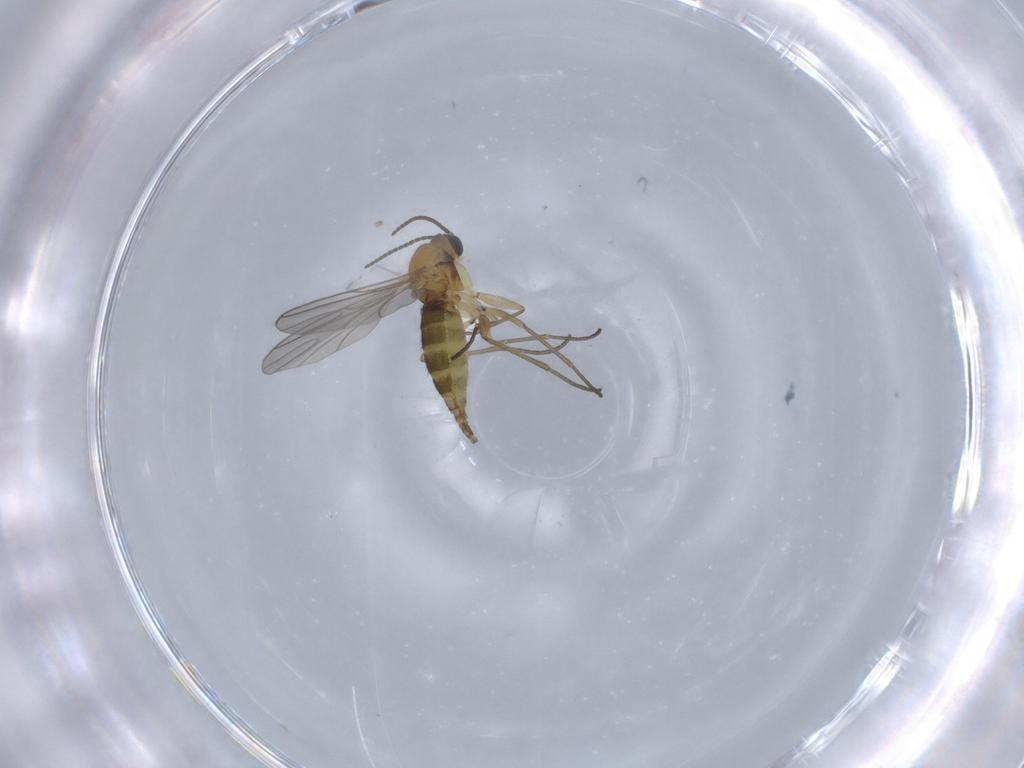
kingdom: Animalia
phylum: Arthropoda
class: Insecta
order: Diptera
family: Sciaridae
